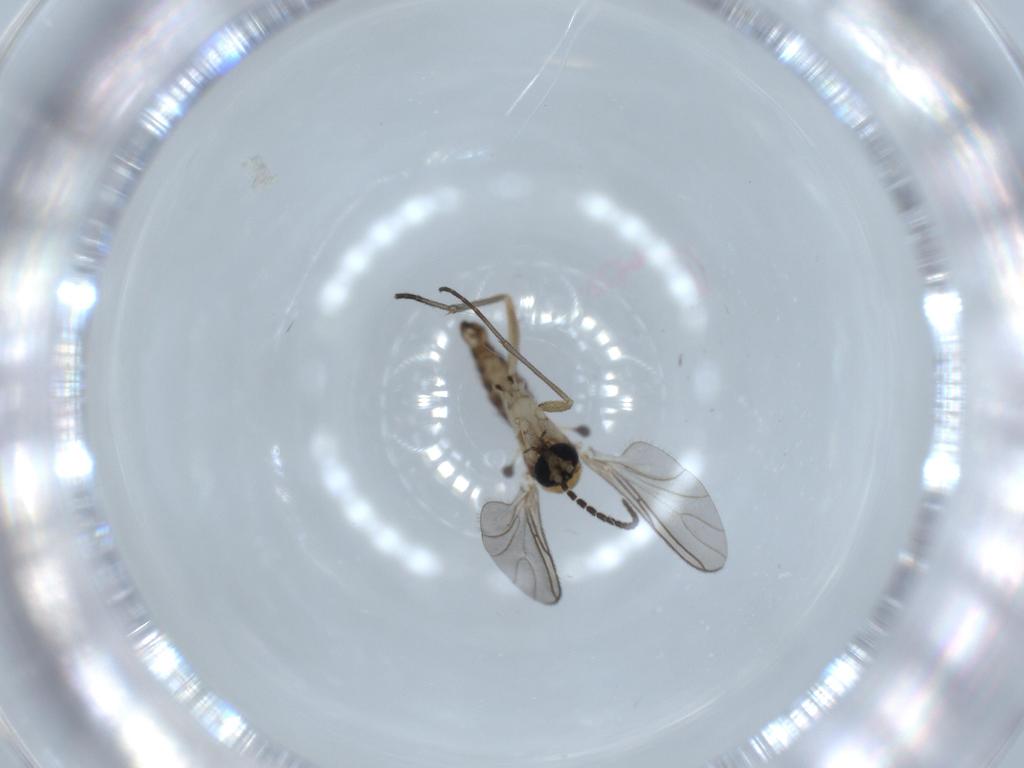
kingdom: Animalia
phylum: Arthropoda
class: Insecta
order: Diptera
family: Sciaridae
